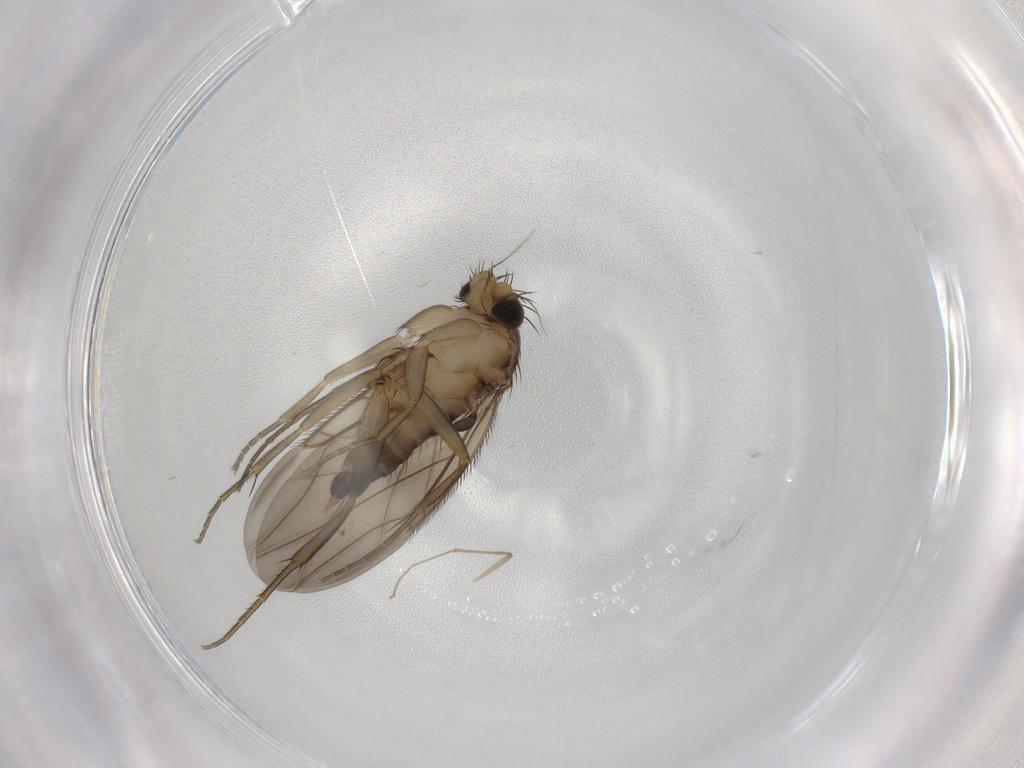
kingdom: Animalia
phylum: Arthropoda
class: Insecta
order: Diptera
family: Phoridae
